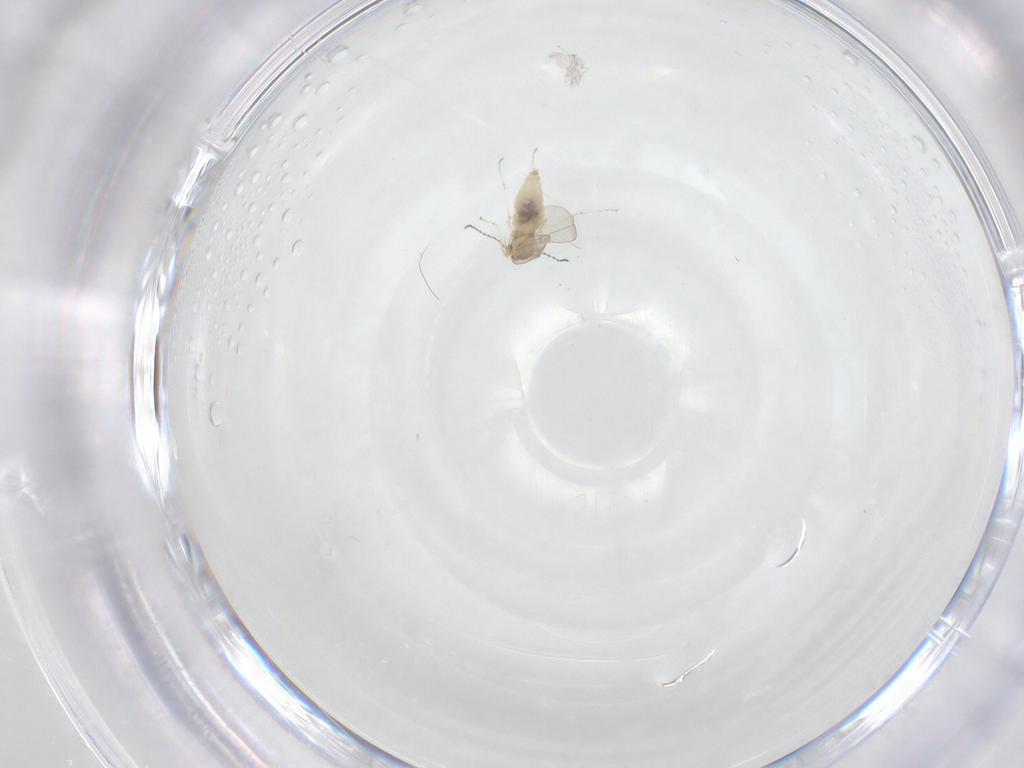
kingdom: Animalia
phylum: Arthropoda
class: Insecta
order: Diptera
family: Cecidomyiidae
